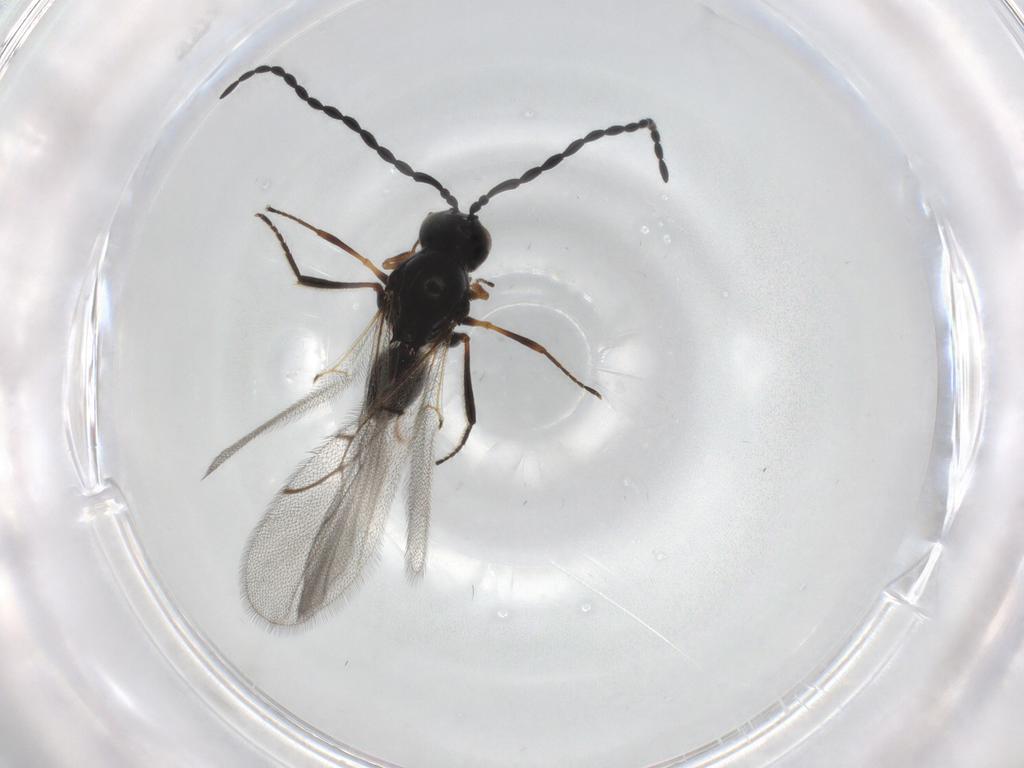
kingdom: Animalia
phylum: Arthropoda
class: Insecta
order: Hymenoptera
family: Figitidae
